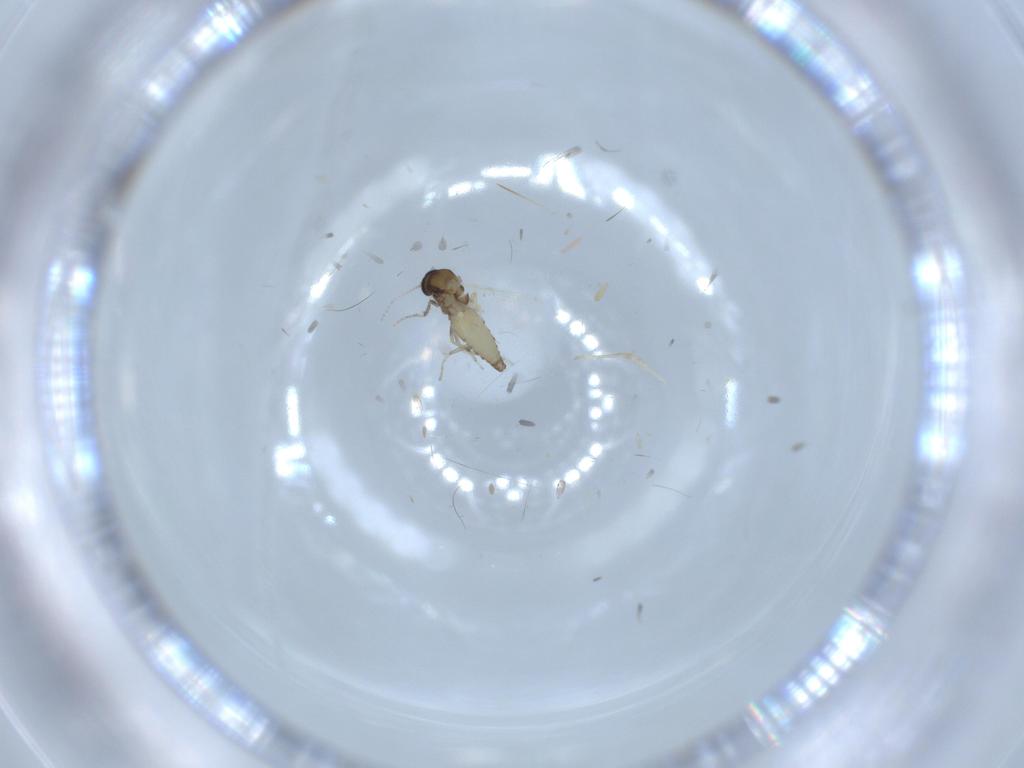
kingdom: Animalia
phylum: Arthropoda
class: Insecta
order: Diptera
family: Ceratopogonidae
